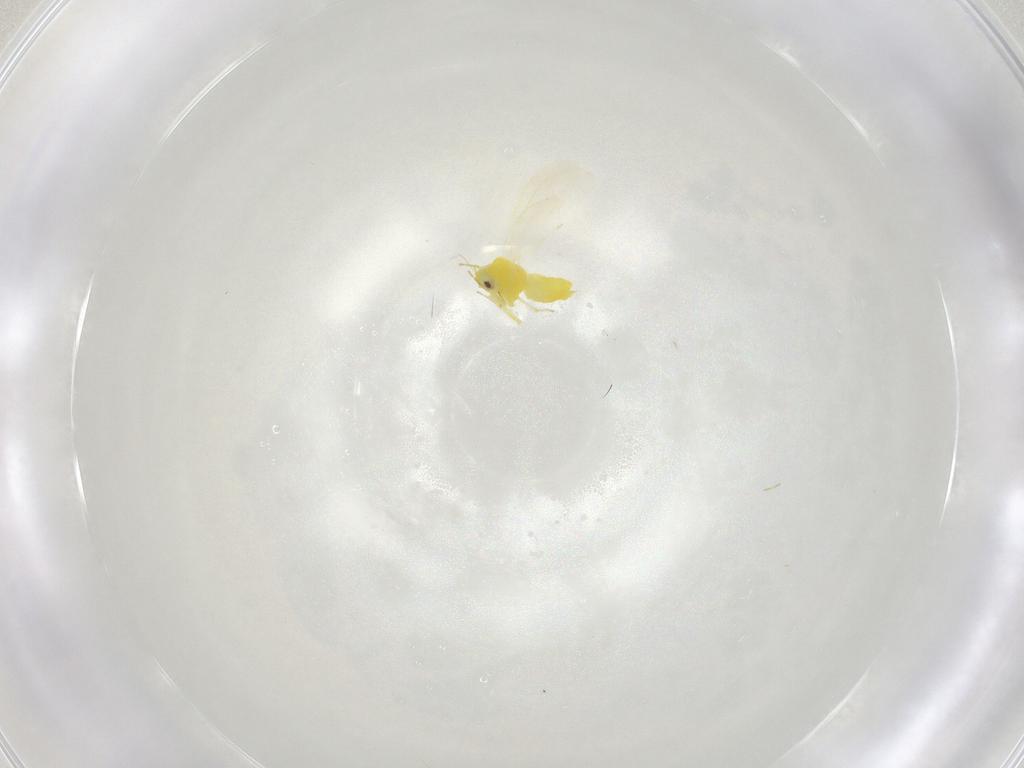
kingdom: Animalia
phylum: Arthropoda
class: Insecta
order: Hemiptera
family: Aleyrodidae
